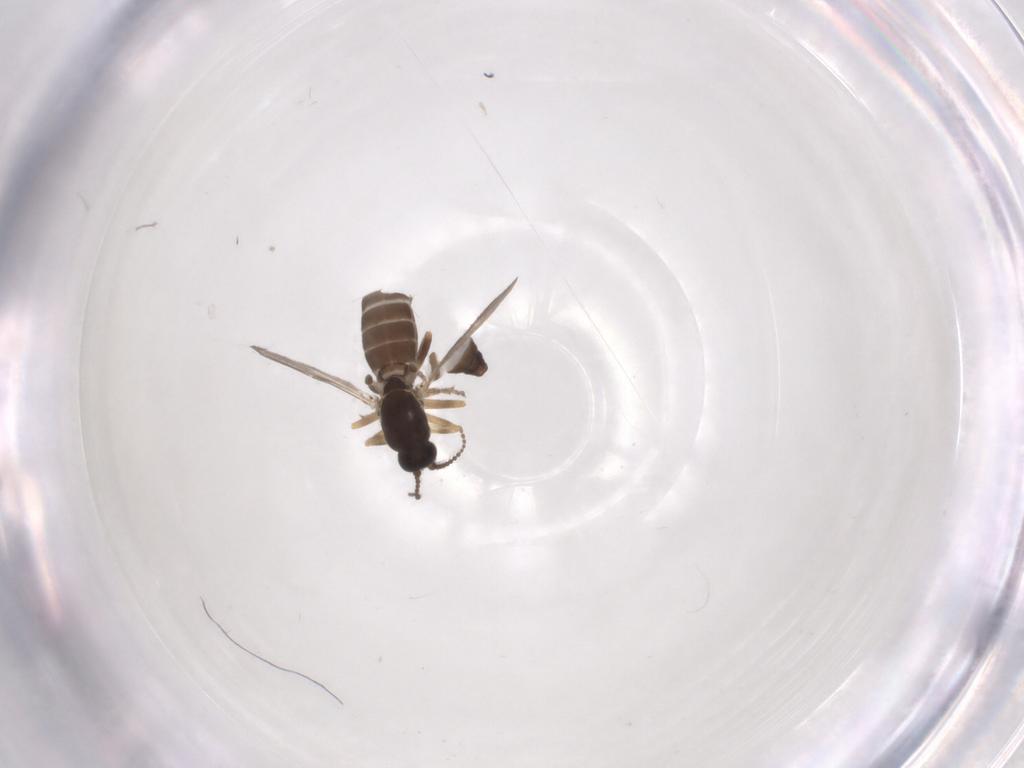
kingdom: Animalia
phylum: Arthropoda
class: Insecta
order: Diptera
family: Ceratopogonidae
